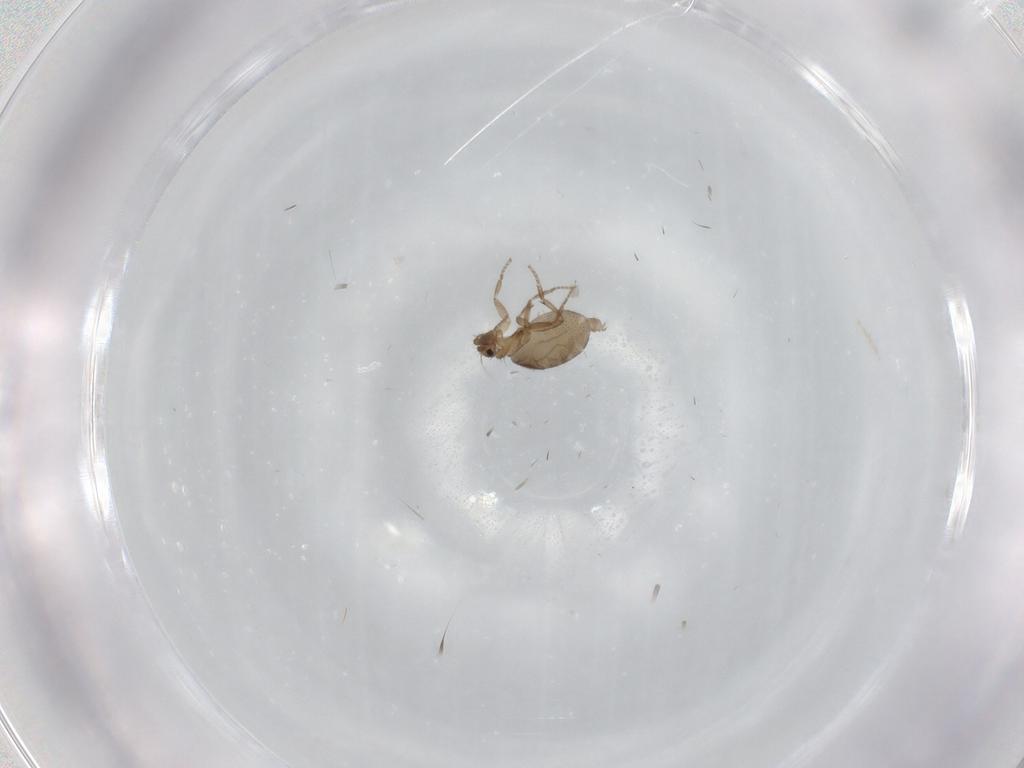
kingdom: Animalia
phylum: Arthropoda
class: Insecta
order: Diptera
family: Phoridae
